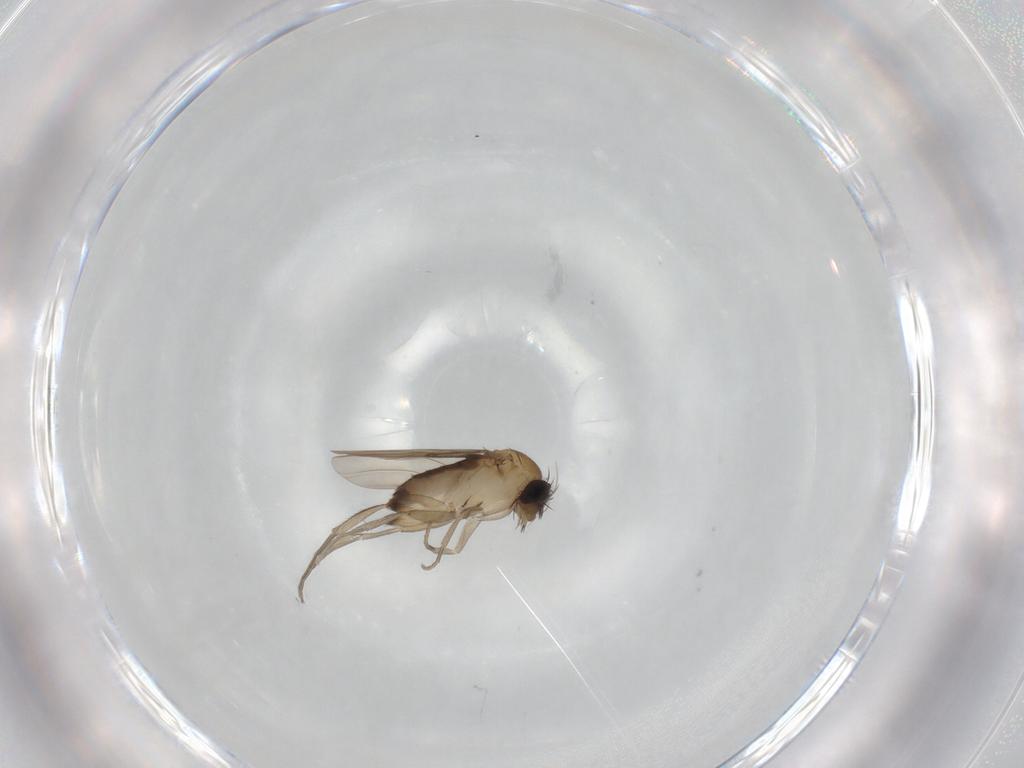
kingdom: Animalia
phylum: Arthropoda
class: Insecta
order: Diptera
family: Phoridae
